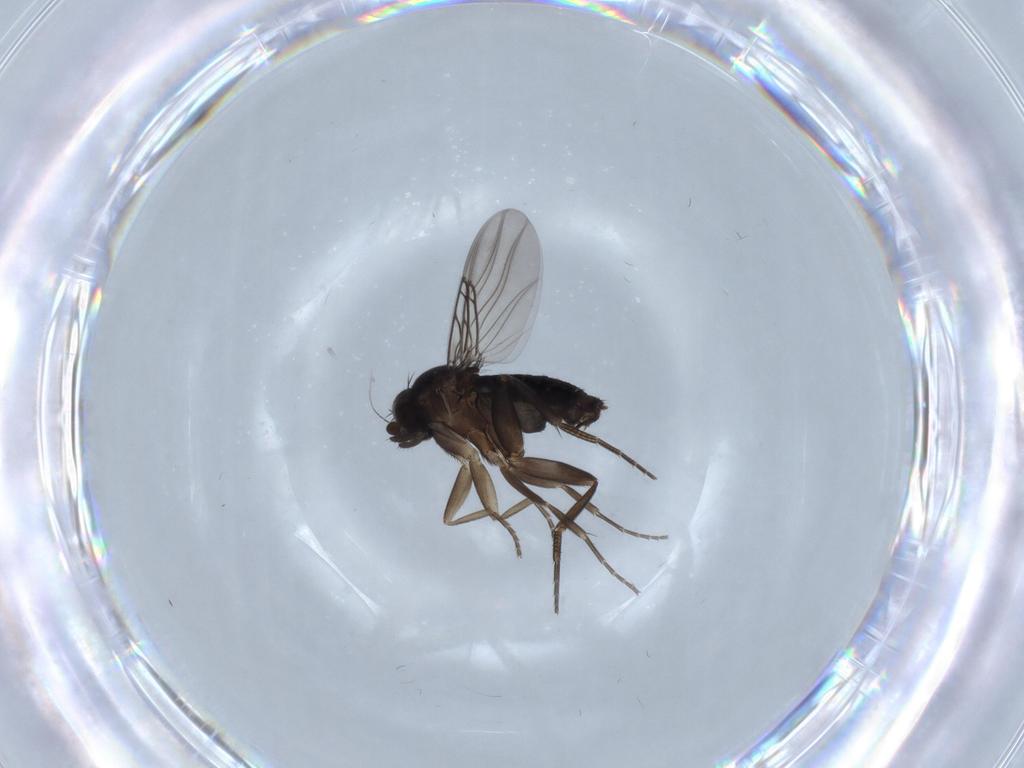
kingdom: Animalia
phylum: Arthropoda
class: Insecta
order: Diptera
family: Phoridae
